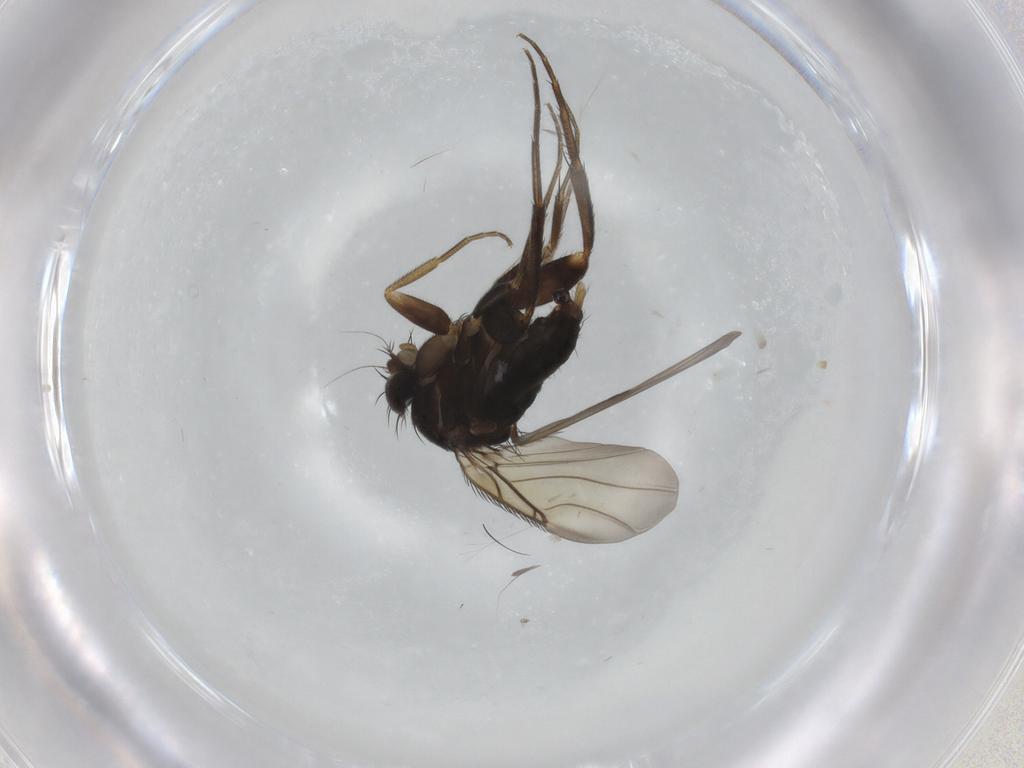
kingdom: Animalia
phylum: Arthropoda
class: Insecta
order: Diptera
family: Phoridae
